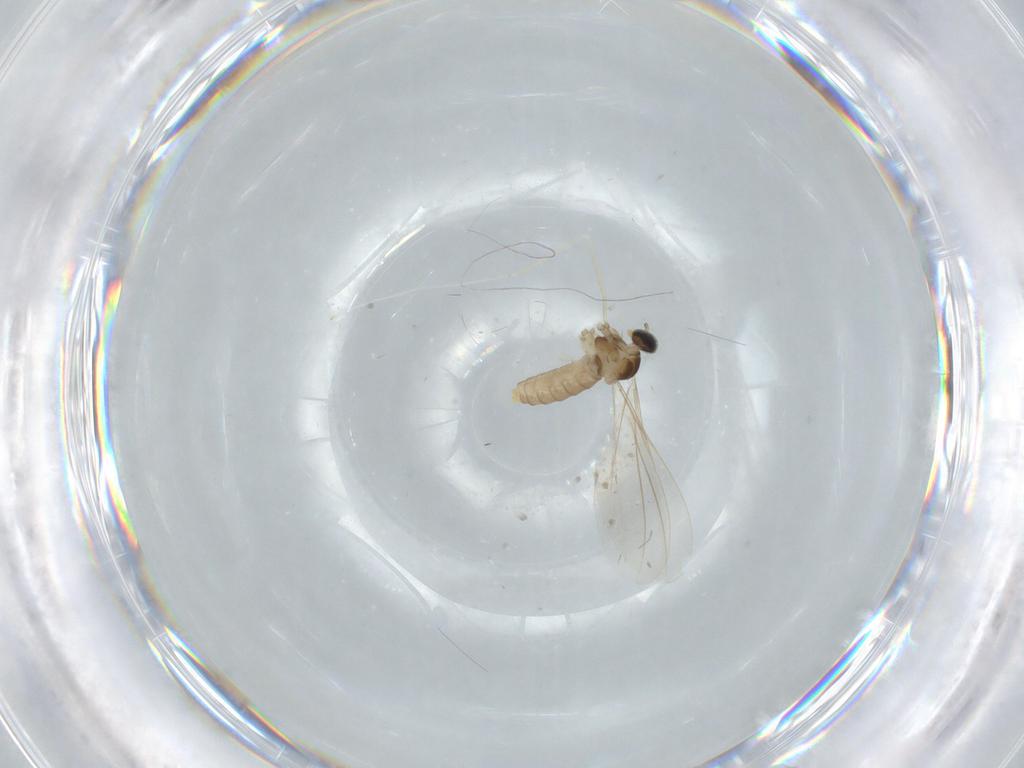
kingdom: Animalia
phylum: Arthropoda
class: Insecta
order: Diptera
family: Cecidomyiidae
